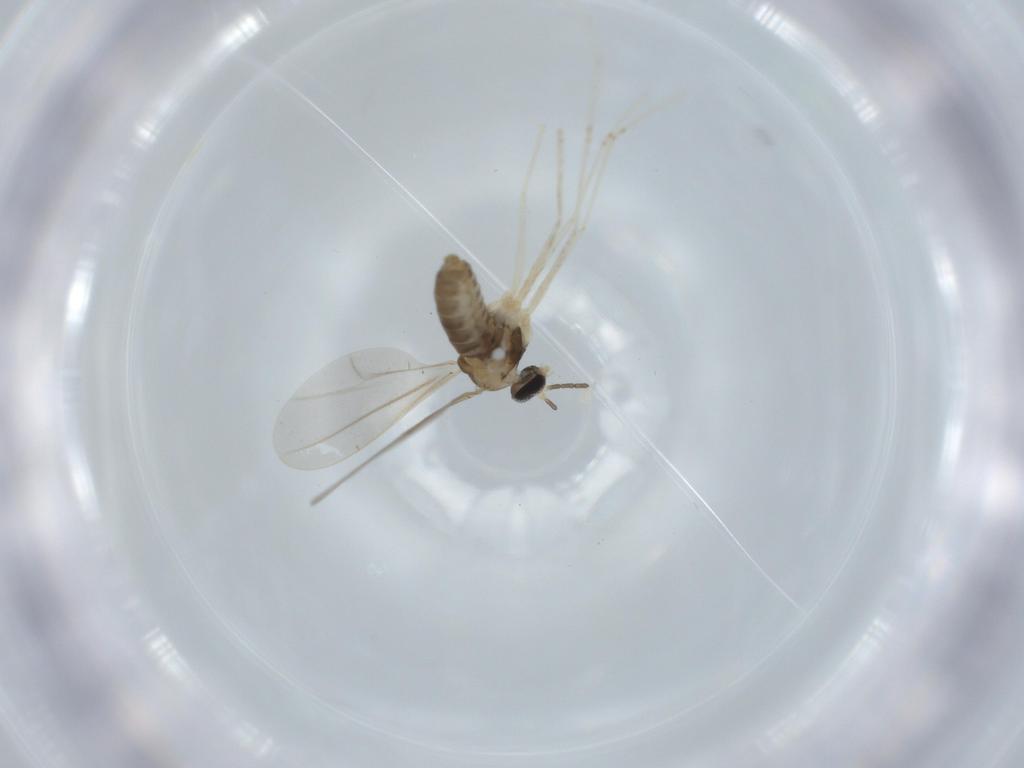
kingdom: Animalia
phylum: Arthropoda
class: Insecta
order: Diptera
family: Cecidomyiidae
